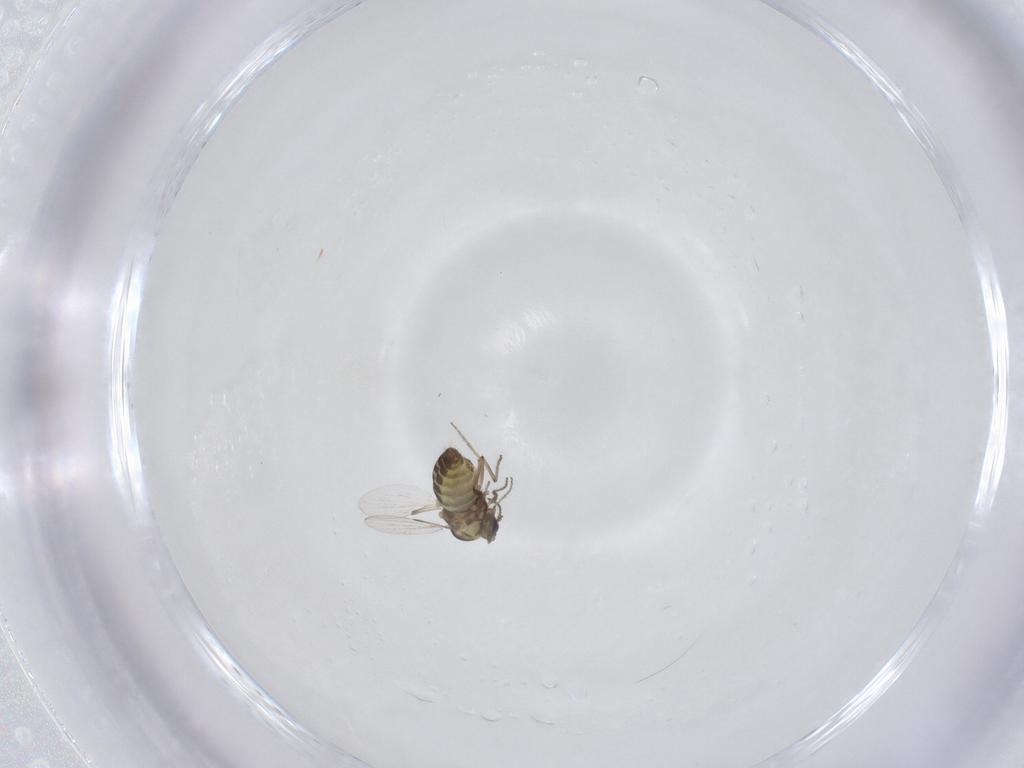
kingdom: Animalia
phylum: Arthropoda
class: Insecta
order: Diptera
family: Ceratopogonidae
